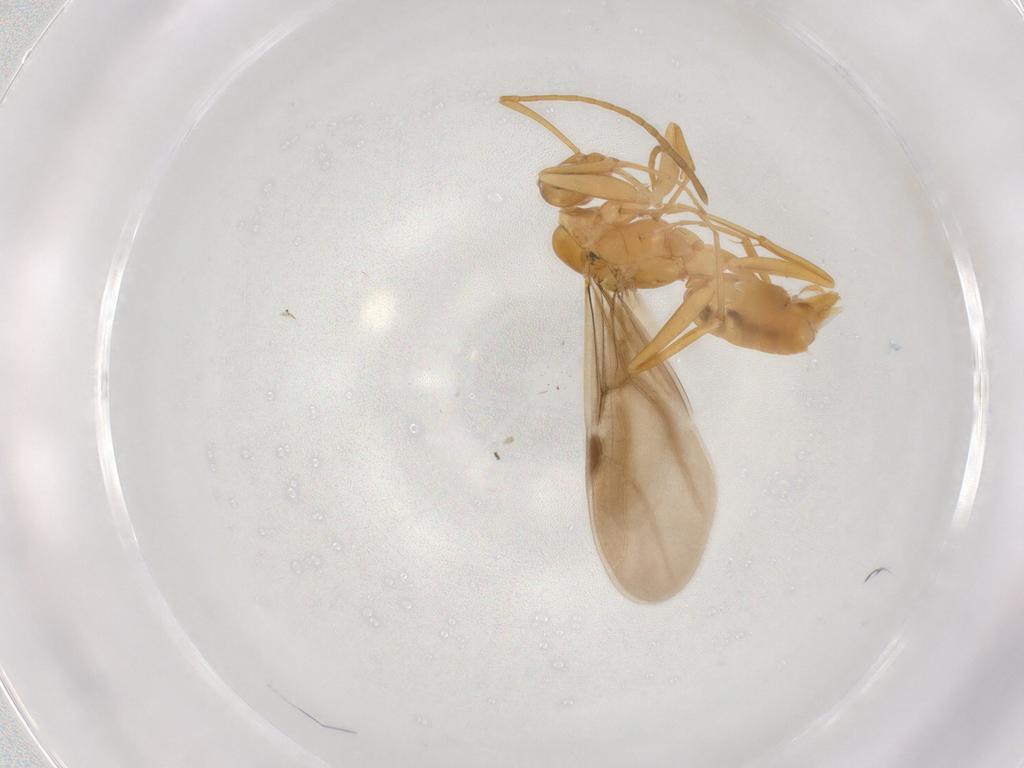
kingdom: Animalia
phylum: Arthropoda
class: Insecta
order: Hymenoptera
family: Formicidae
